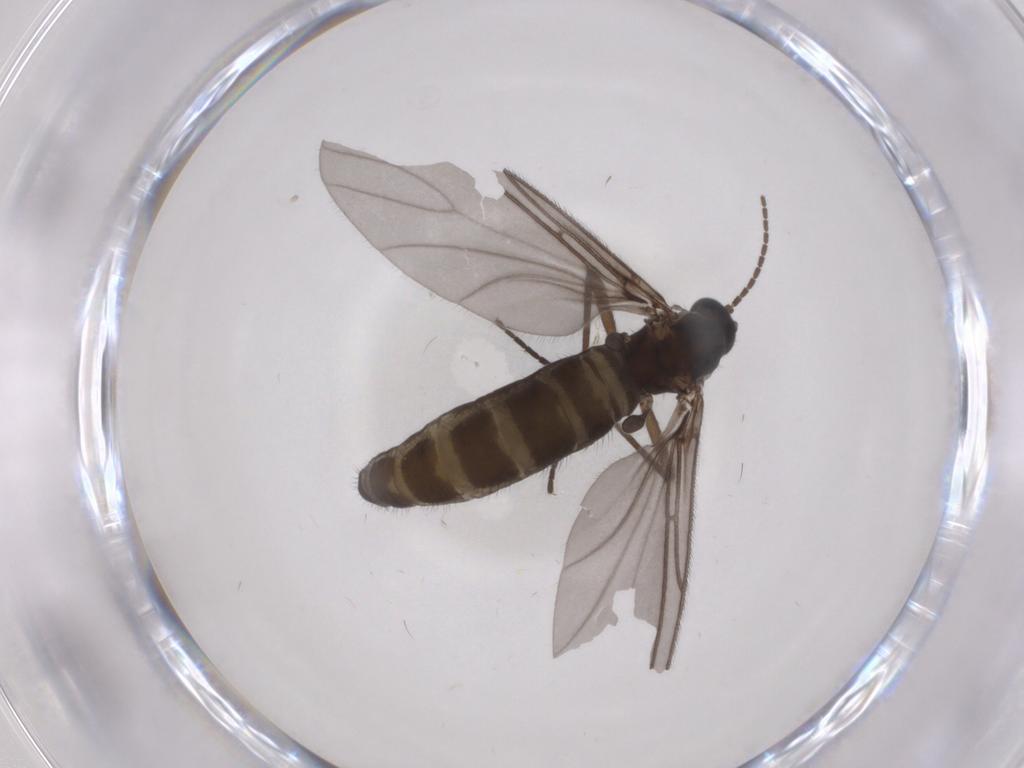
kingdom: Animalia
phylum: Arthropoda
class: Insecta
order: Diptera
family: Sciaridae
